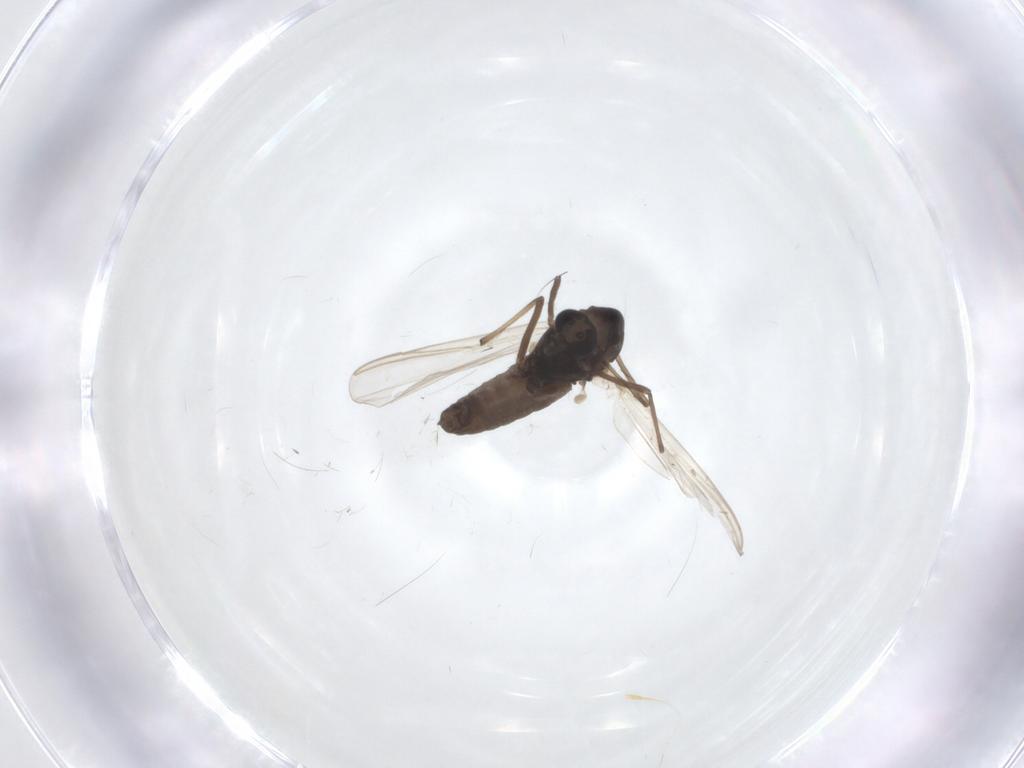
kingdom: Animalia
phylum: Arthropoda
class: Insecta
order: Diptera
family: Chironomidae
